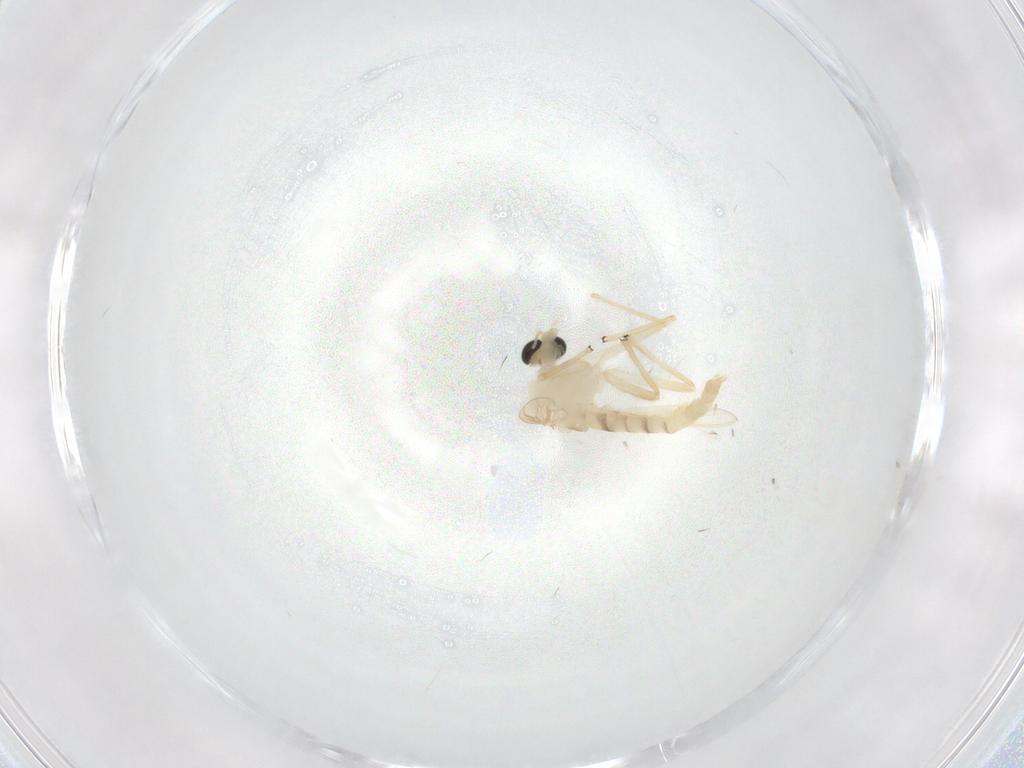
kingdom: Animalia
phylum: Arthropoda
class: Insecta
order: Diptera
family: Chironomidae
